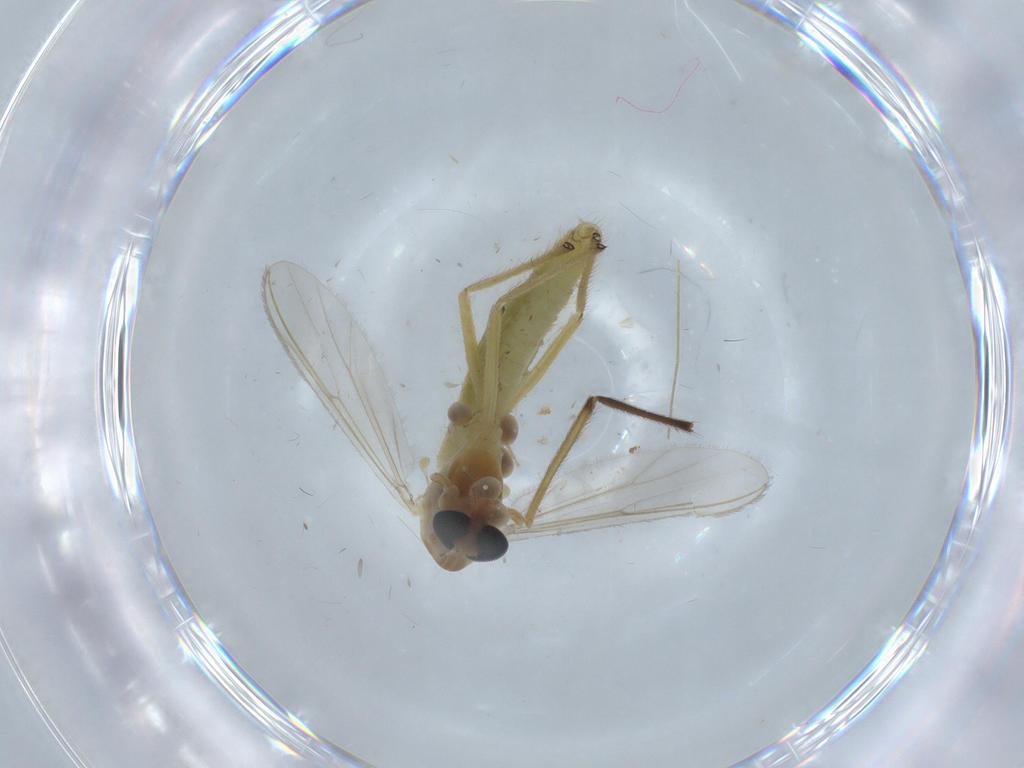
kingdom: Animalia
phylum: Arthropoda
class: Insecta
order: Diptera
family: Chironomidae
